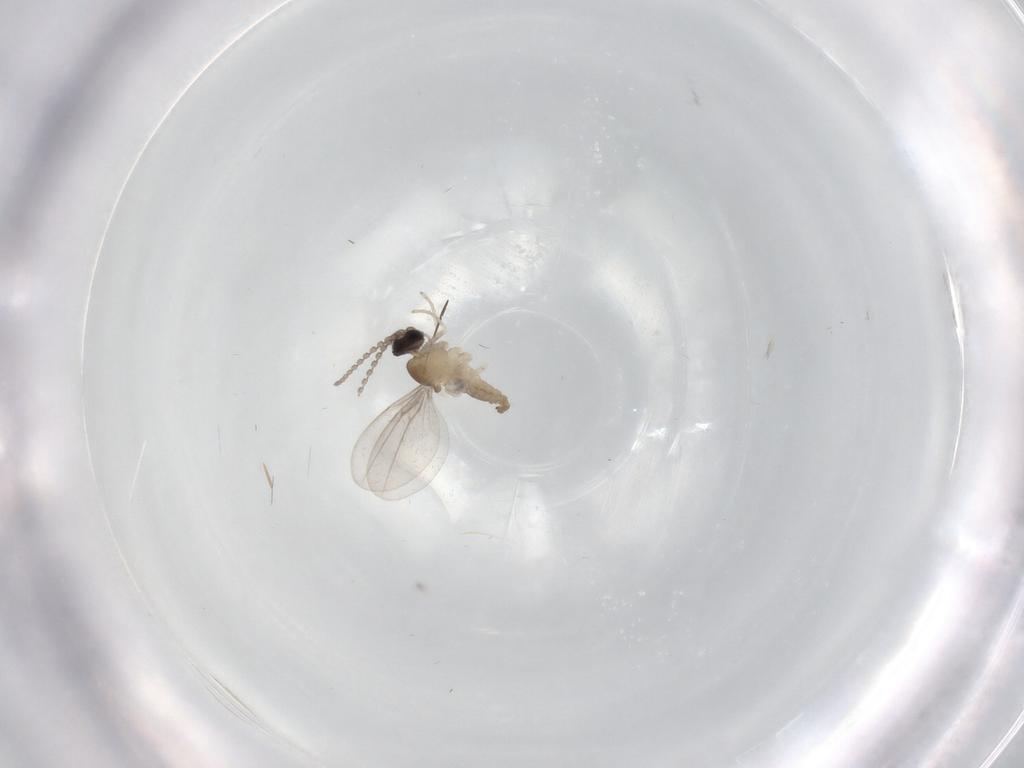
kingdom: Animalia
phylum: Arthropoda
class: Insecta
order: Diptera
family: Cecidomyiidae
